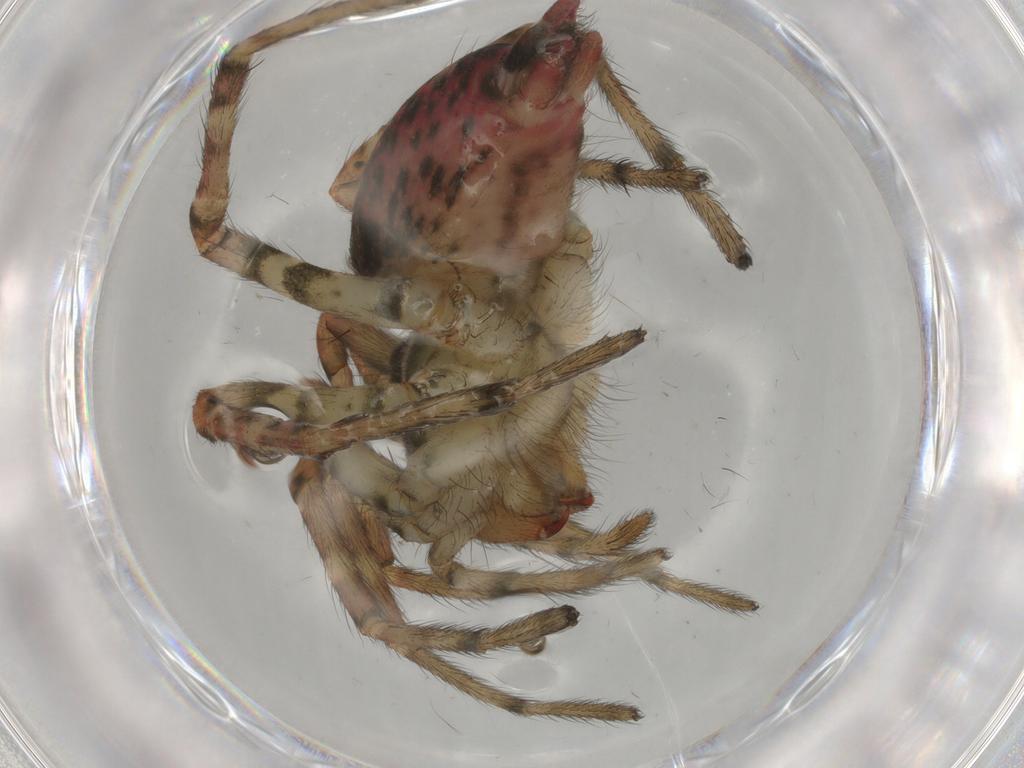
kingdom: Animalia
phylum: Arthropoda
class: Arachnida
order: Araneae
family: Agelenidae
